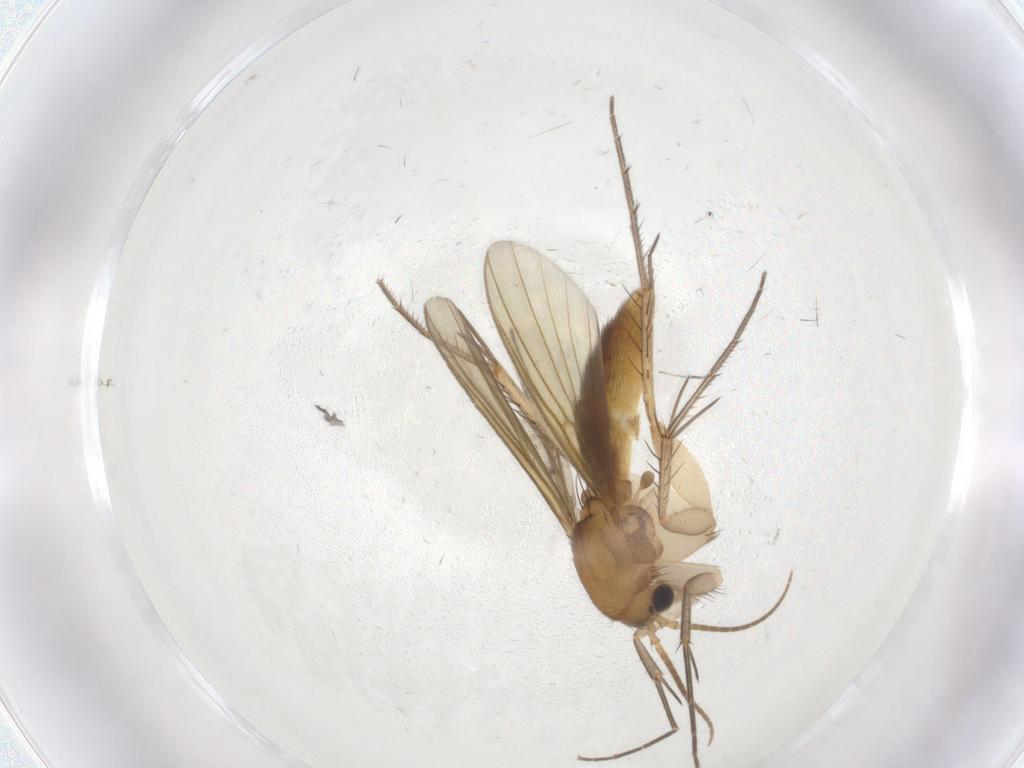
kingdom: Animalia
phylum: Arthropoda
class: Insecta
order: Diptera
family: Mycetophilidae
